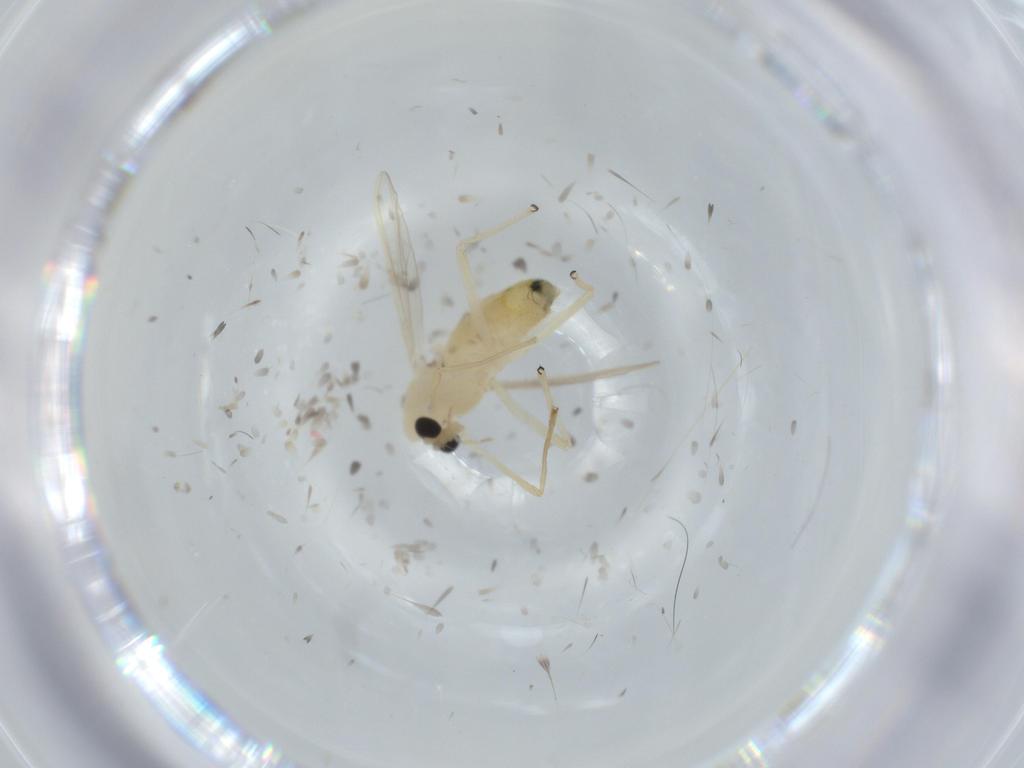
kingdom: Animalia
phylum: Arthropoda
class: Insecta
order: Diptera
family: Chironomidae
